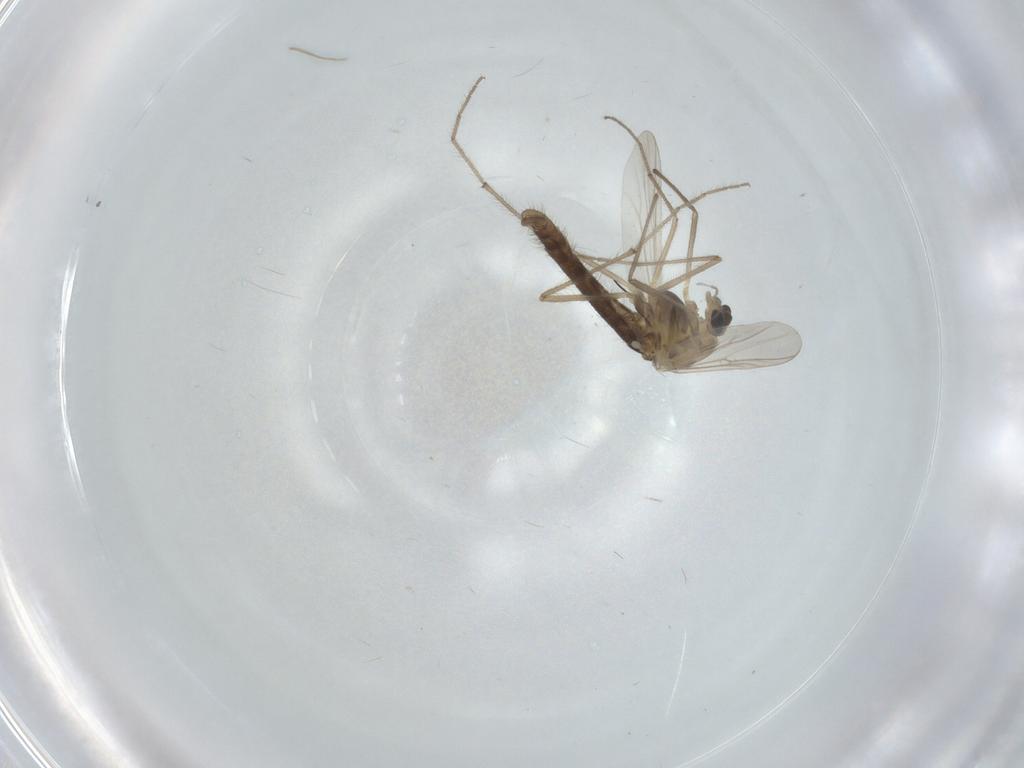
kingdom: Animalia
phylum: Arthropoda
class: Insecta
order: Diptera
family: Chironomidae
